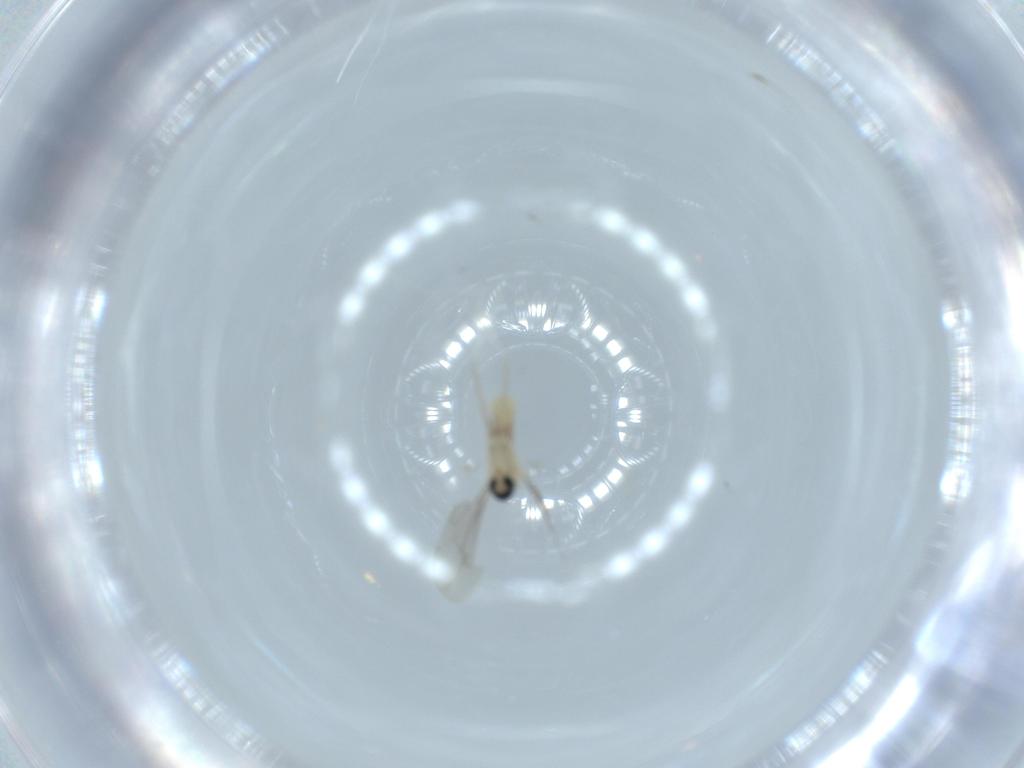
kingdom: Animalia
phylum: Arthropoda
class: Insecta
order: Diptera
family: Cecidomyiidae
